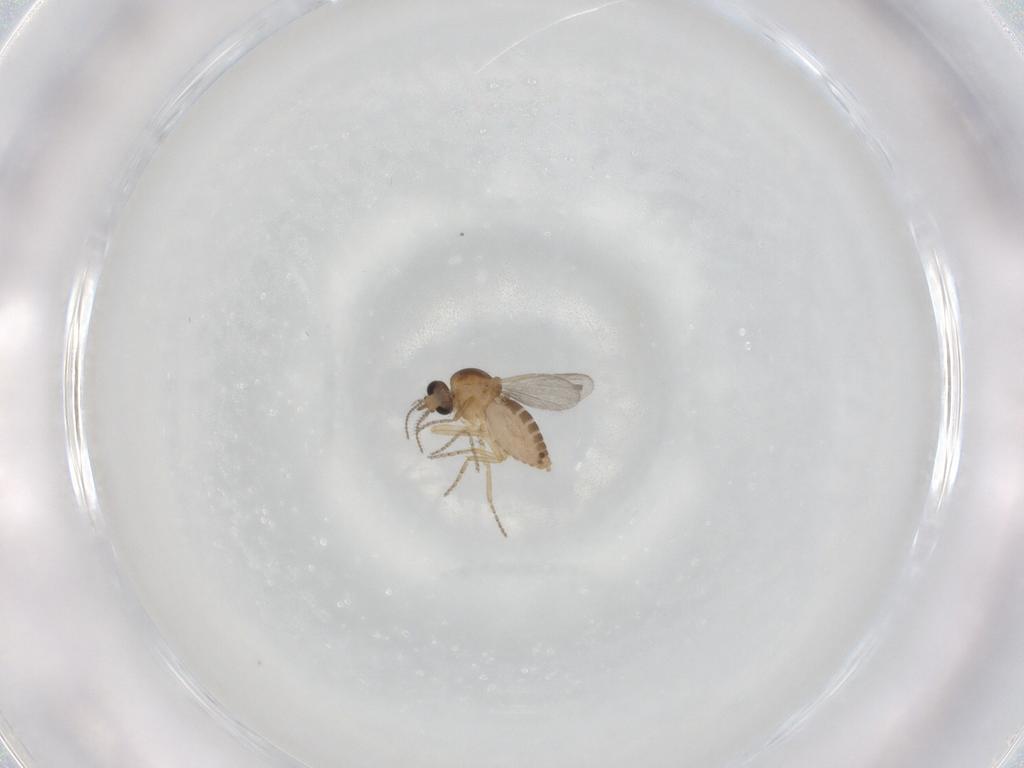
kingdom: Animalia
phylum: Arthropoda
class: Insecta
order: Diptera
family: Ceratopogonidae
